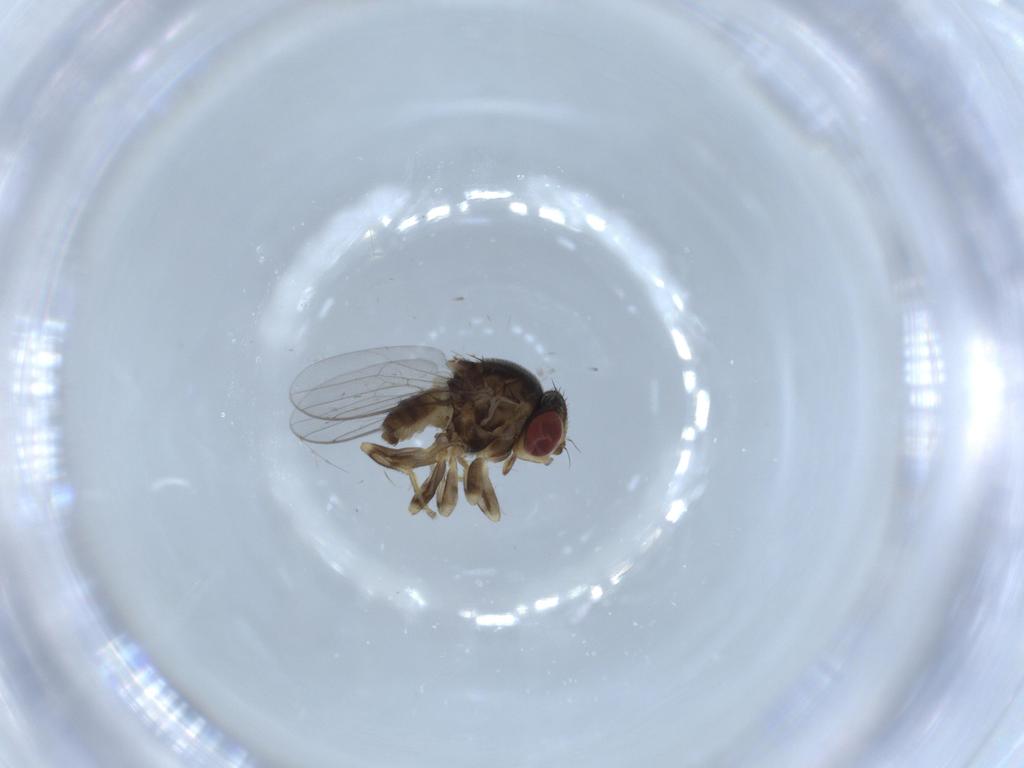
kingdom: Animalia
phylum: Arthropoda
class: Insecta
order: Diptera
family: Chloropidae
